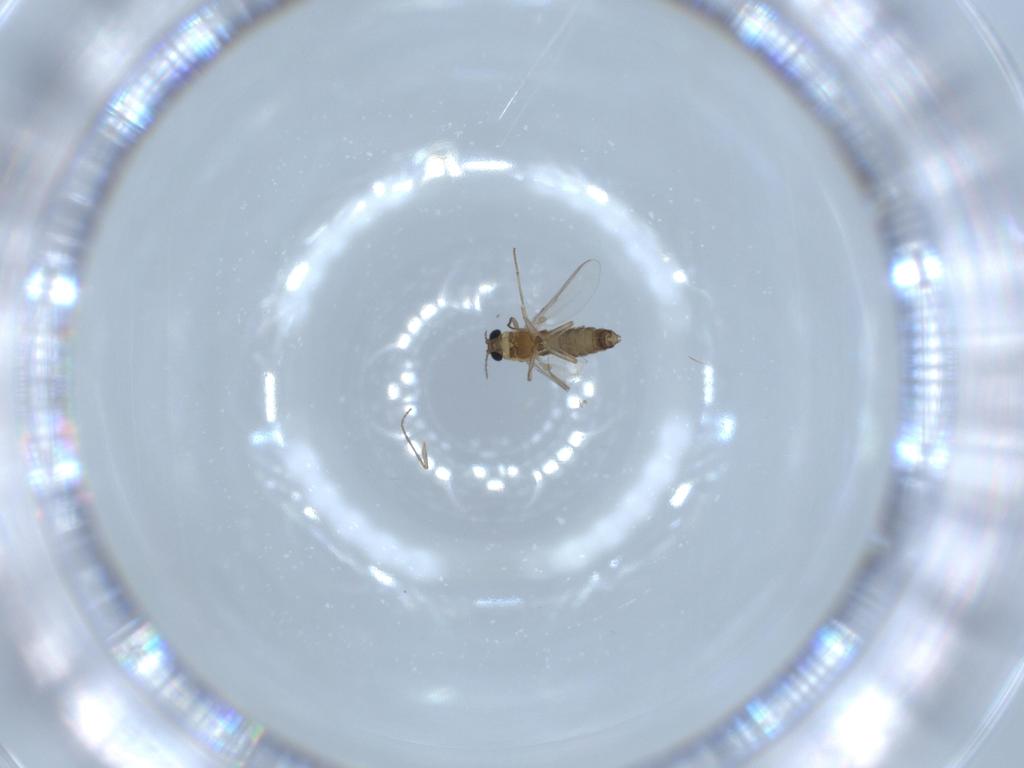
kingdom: Animalia
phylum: Arthropoda
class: Insecta
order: Diptera
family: Chironomidae
